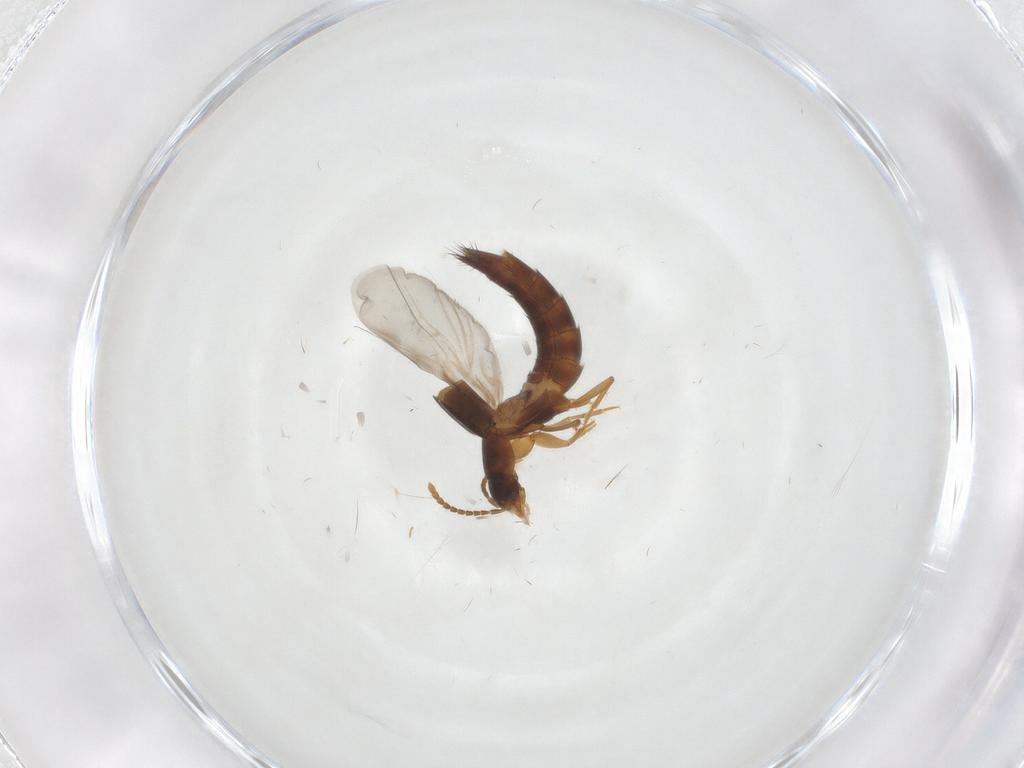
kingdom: Animalia
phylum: Arthropoda
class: Insecta
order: Coleoptera
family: Staphylinidae
